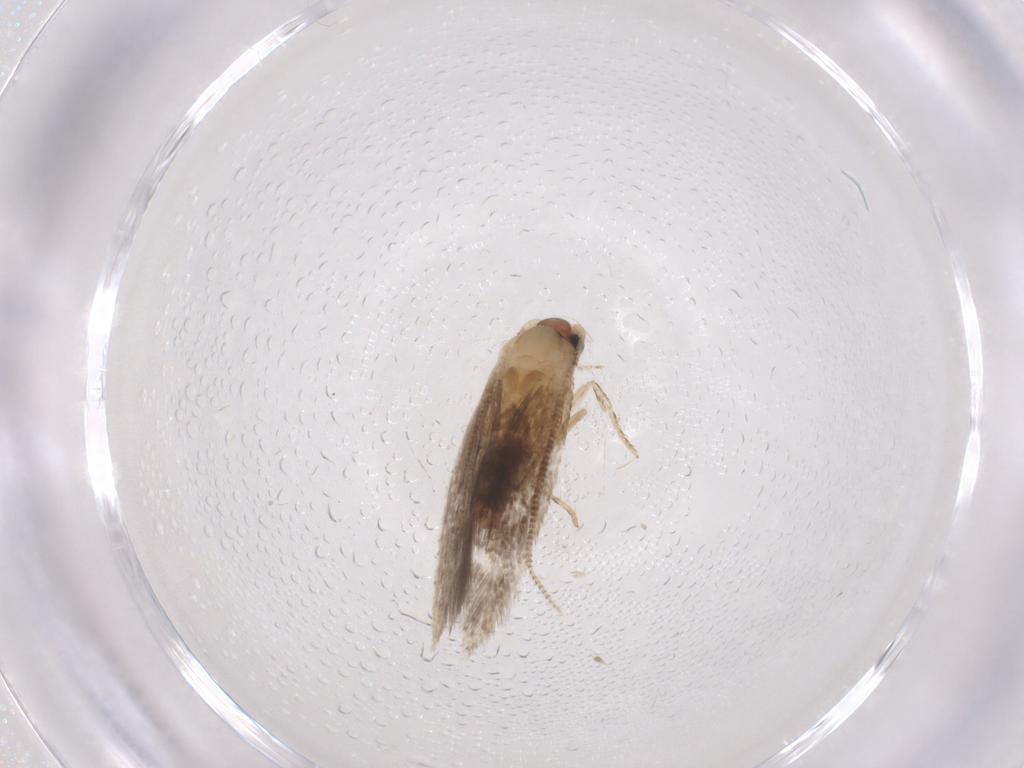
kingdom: Animalia
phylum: Arthropoda
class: Insecta
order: Lepidoptera
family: Tineidae
